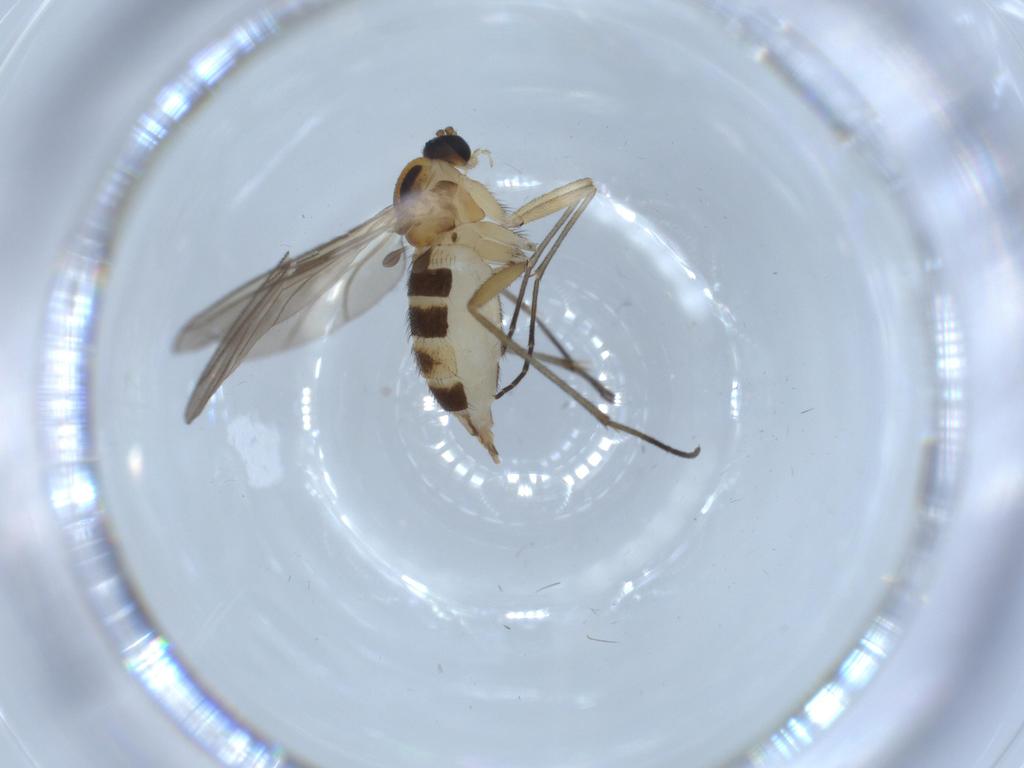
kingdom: Animalia
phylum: Arthropoda
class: Insecta
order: Diptera
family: Sciaridae
